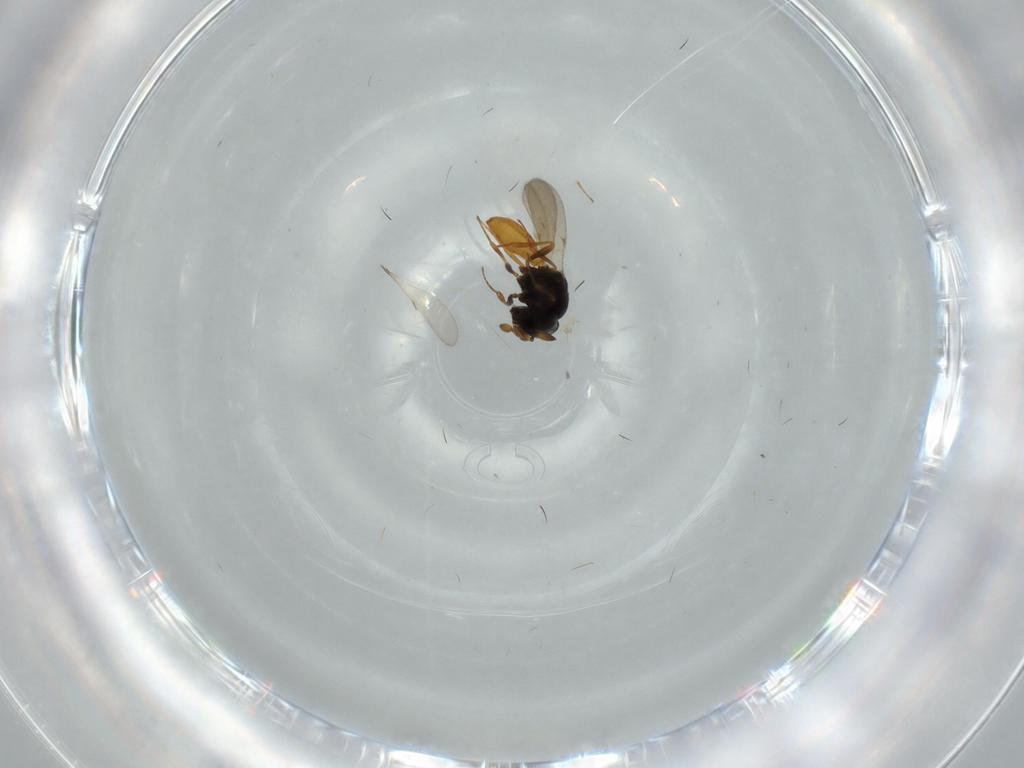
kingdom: Animalia
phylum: Arthropoda
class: Insecta
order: Hymenoptera
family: Scelionidae
